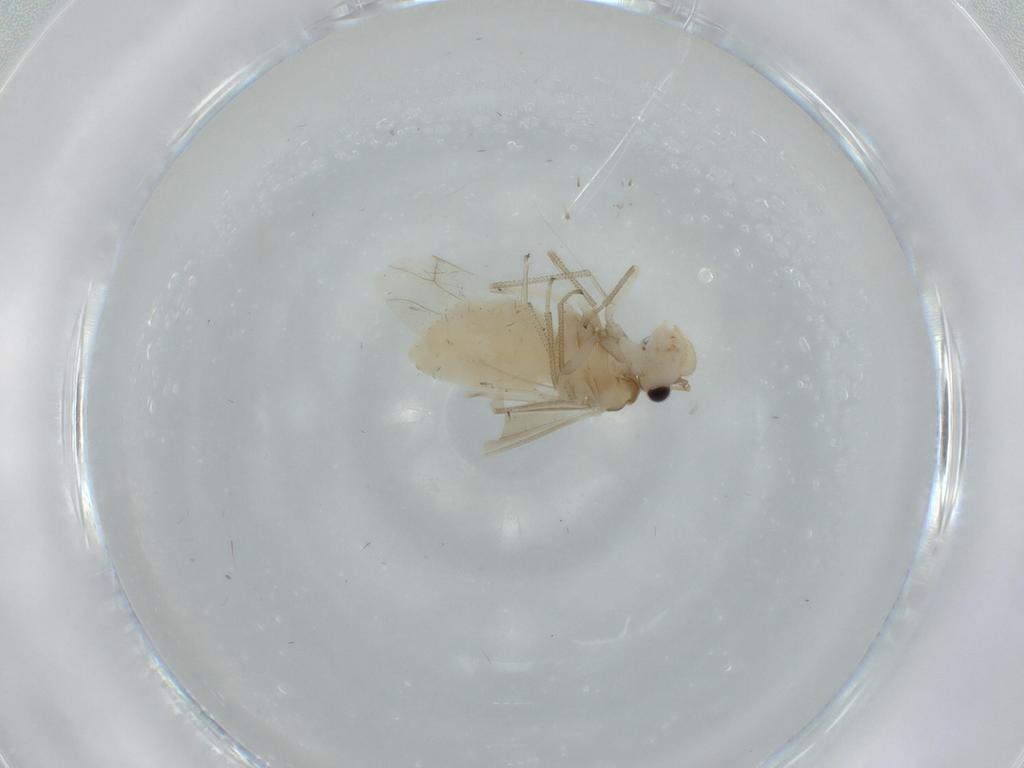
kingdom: Animalia
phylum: Arthropoda
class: Insecta
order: Psocodea
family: Caeciliusidae
